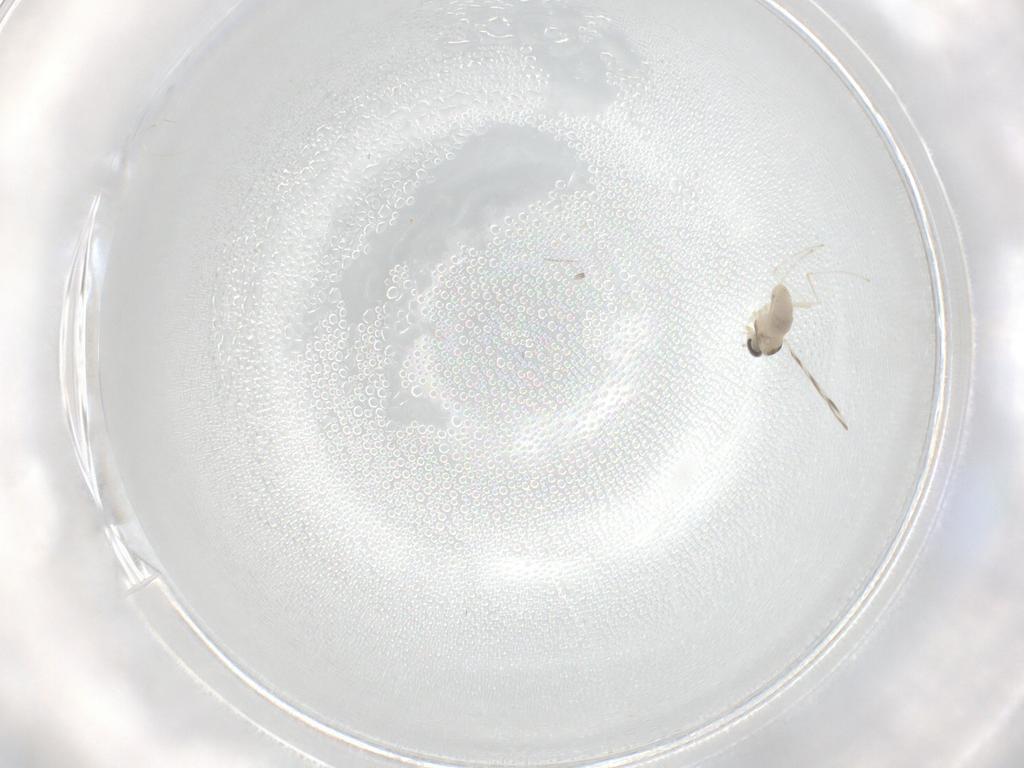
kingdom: Animalia
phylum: Arthropoda
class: Insecta
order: Diptera
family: Cecidomyiidae
